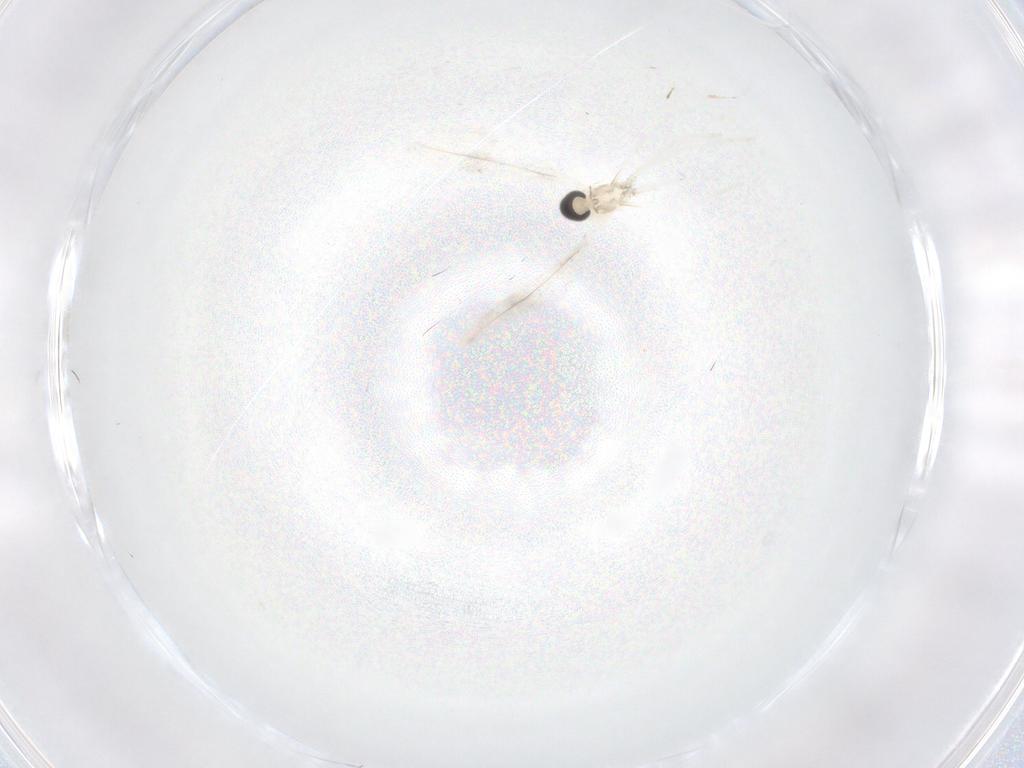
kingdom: Animalia
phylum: Arthropoda
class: Insecta
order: Diptera
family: Cecidomyiidae
